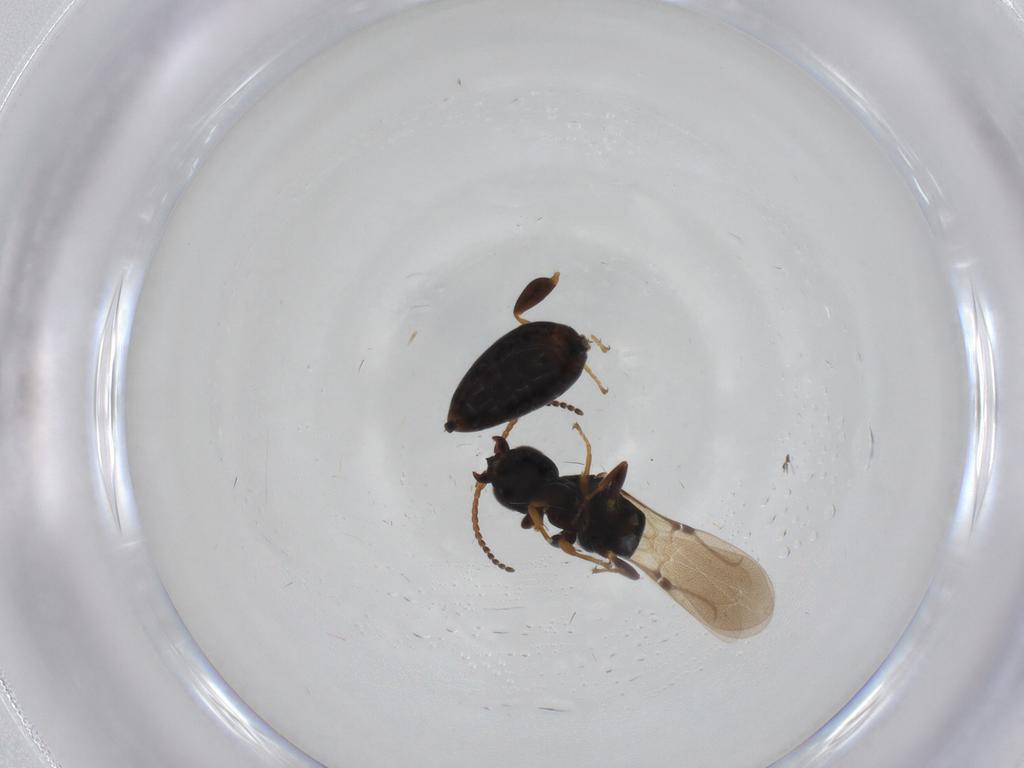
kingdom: Animalia
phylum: Arthropoda
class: Insecta
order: Hymenoptera
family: Bethylidae
